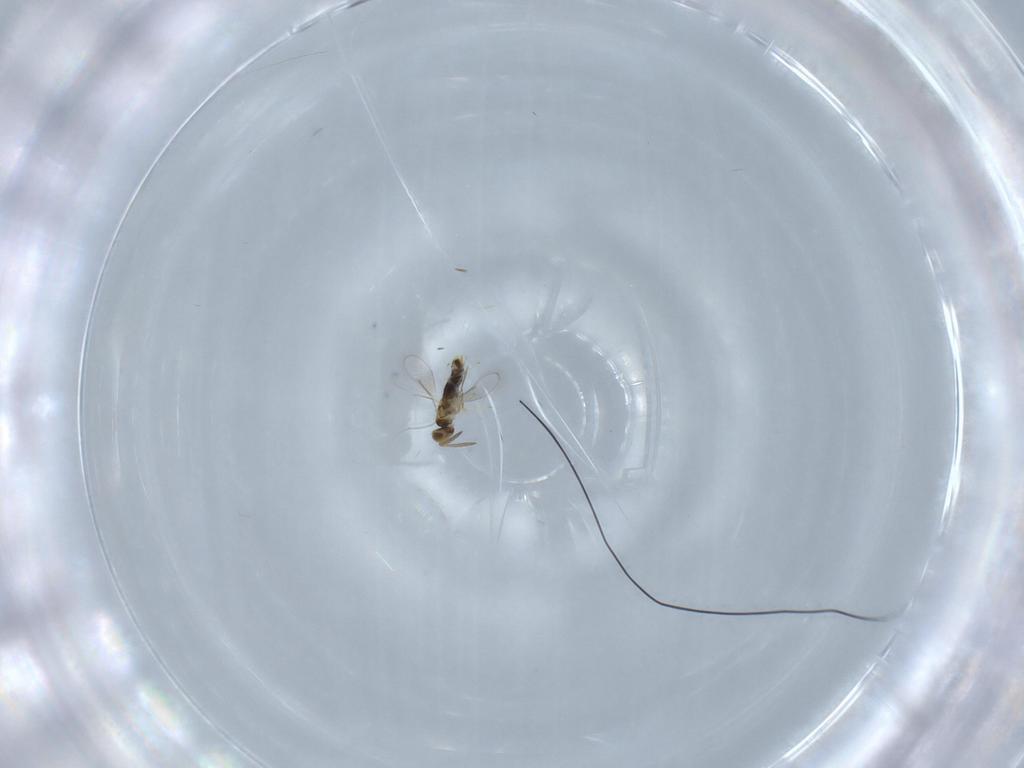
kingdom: Animalia
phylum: Arthropoda
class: Insecta
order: Hymenoptera
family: Aphelinidae
